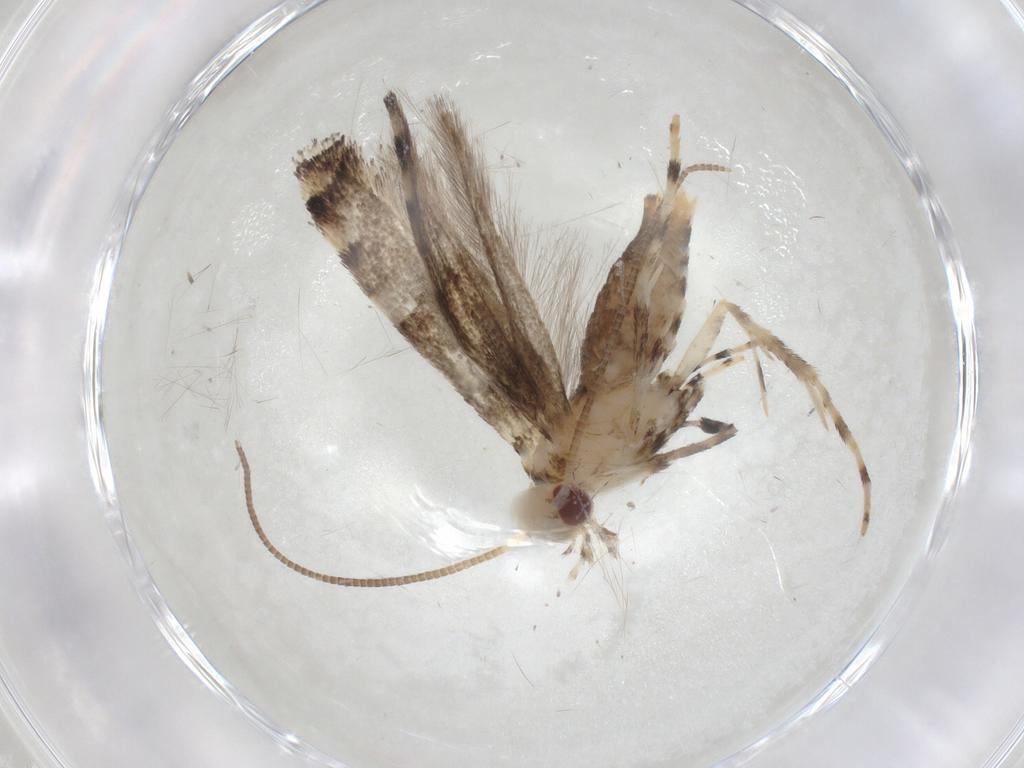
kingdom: Animalia
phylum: Arthropoda
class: Insecta
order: Lepidoptera
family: Gracillariidae
